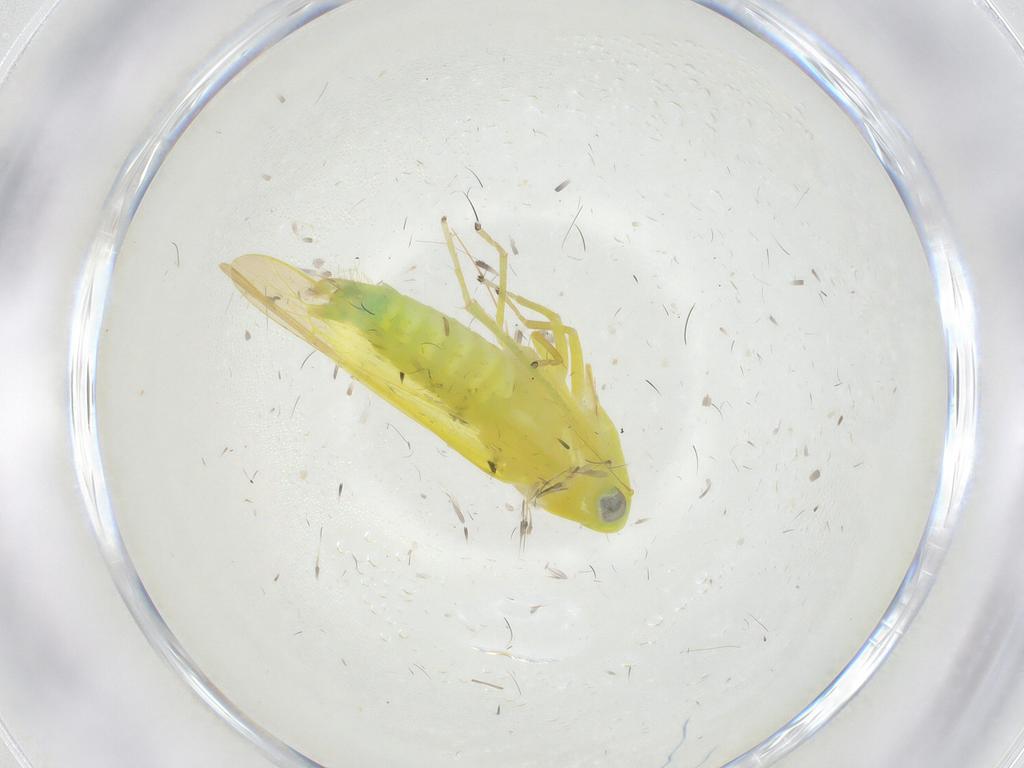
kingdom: Animalia
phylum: Arthropoda
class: Insecta
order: Hemiptera
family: Cicadellidae
